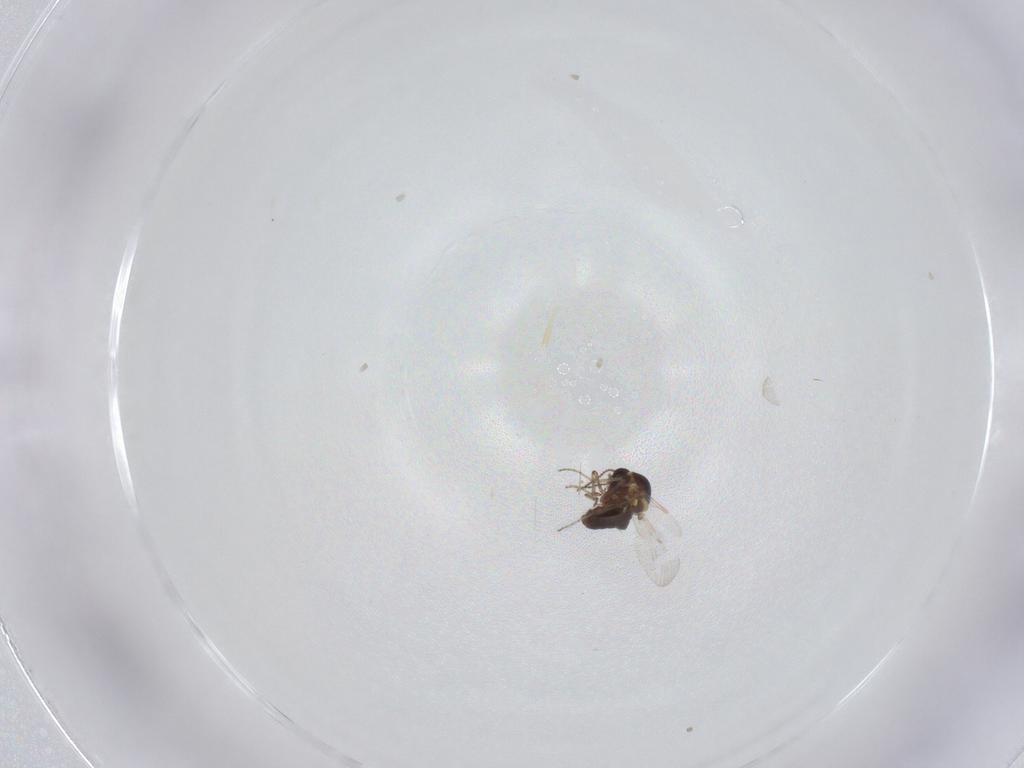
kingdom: Animalia
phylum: Arthropoda
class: Insecta
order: Diptera
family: Ceratopogonidae
